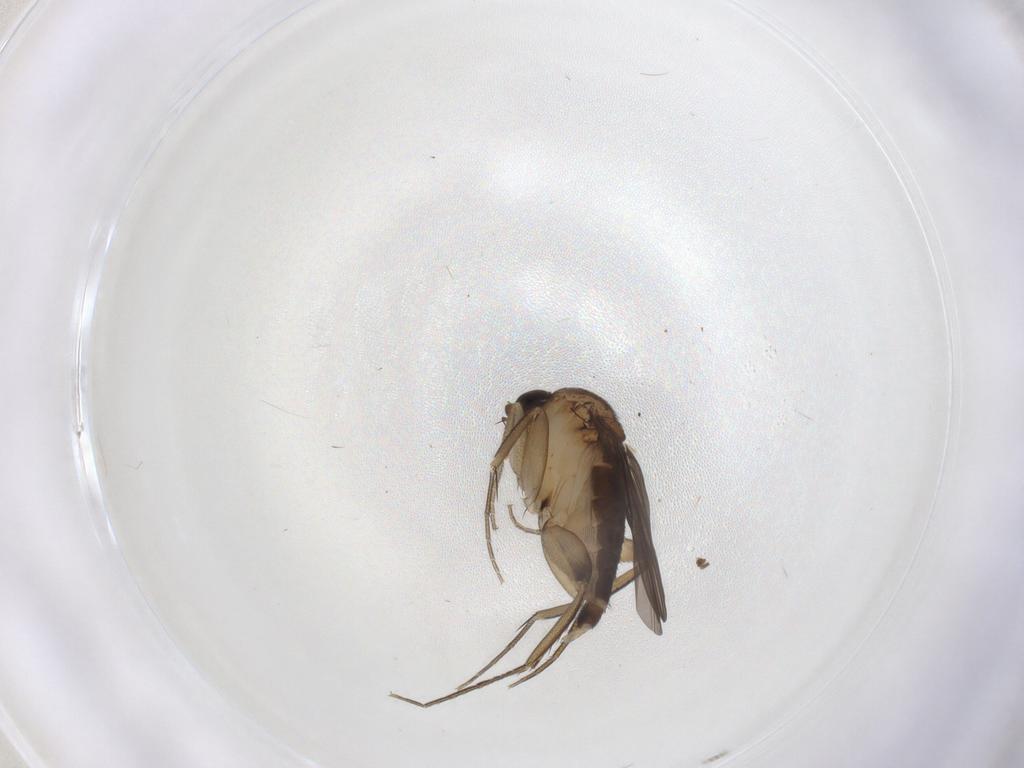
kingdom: Animalia
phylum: Arthropoda
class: Insecta
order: Diptera
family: Phoridae
